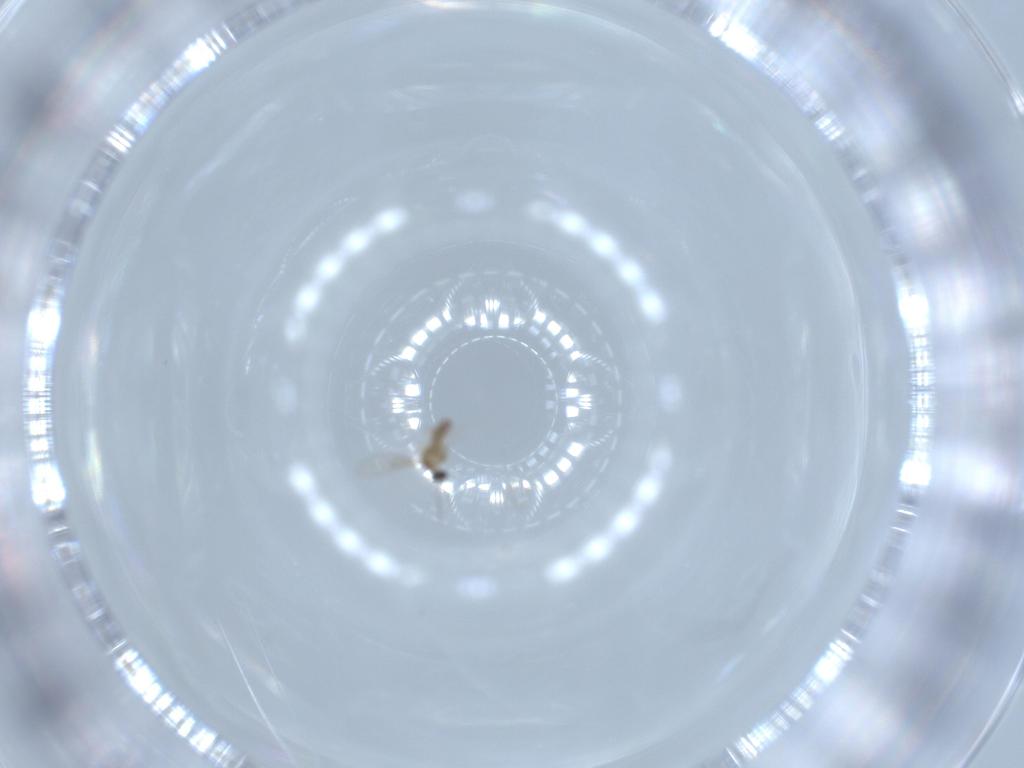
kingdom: Animalia
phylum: Arthropoda
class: Insecta
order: Diptera
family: Cecidomyiidae
